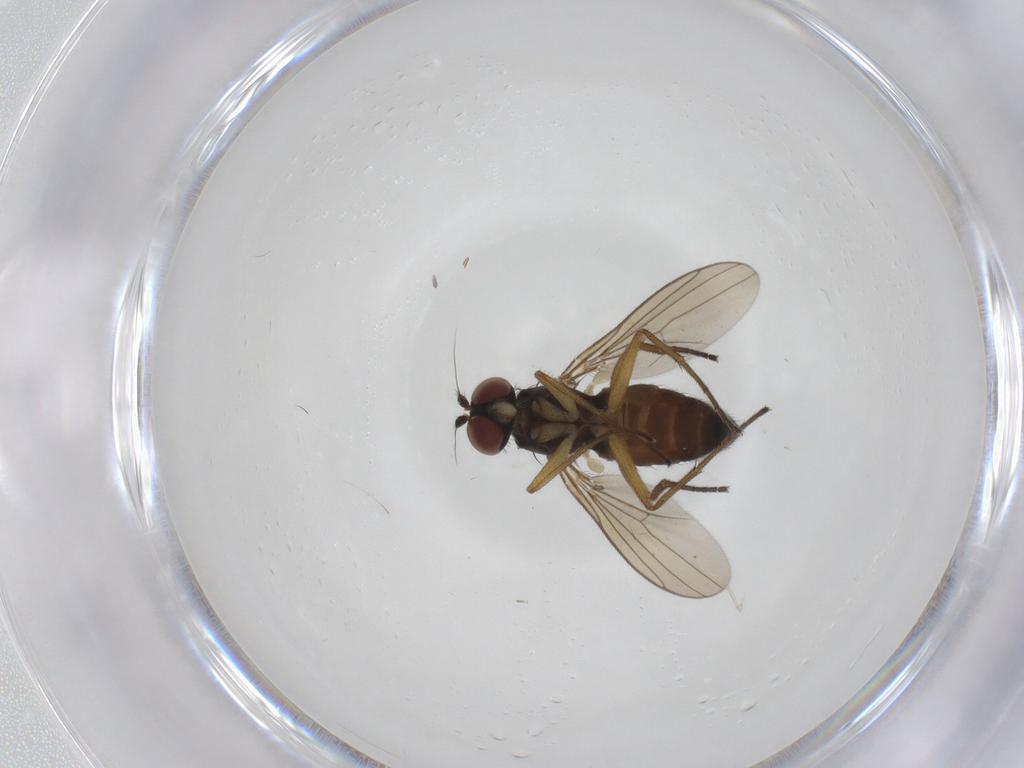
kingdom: Animalia
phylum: Arthropoda
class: Insecta
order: Diptera
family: Dolichopodidae
